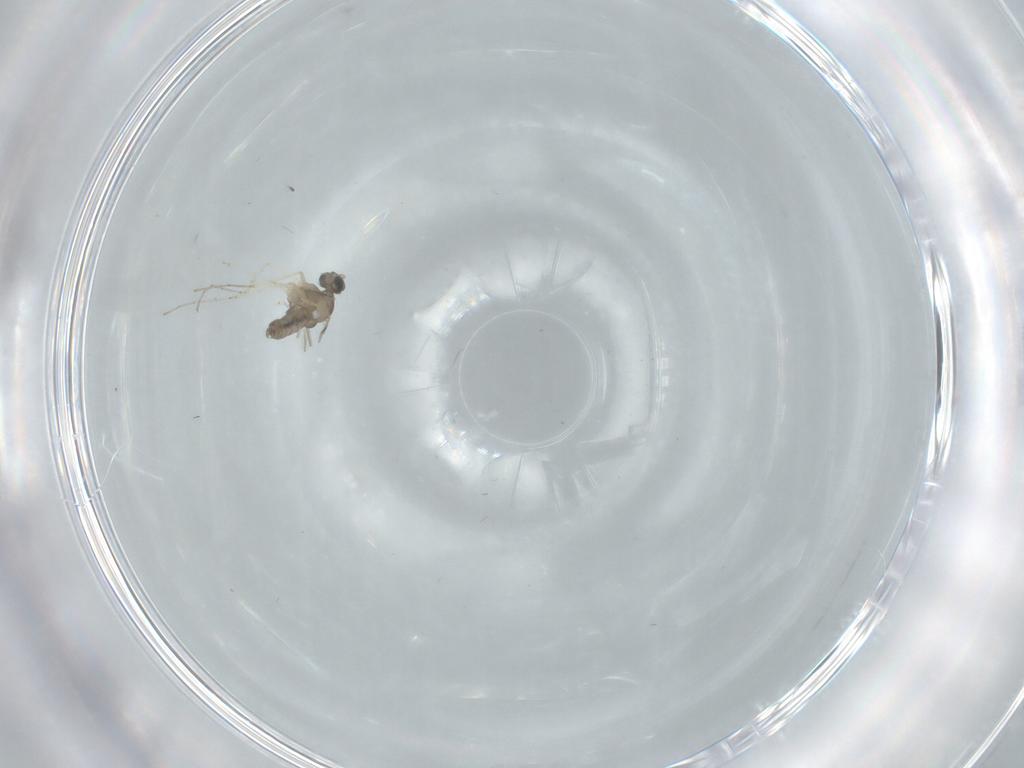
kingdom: Animalia
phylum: Arthropoda
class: Insecta
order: Diptera
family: Cecidomyiidae
